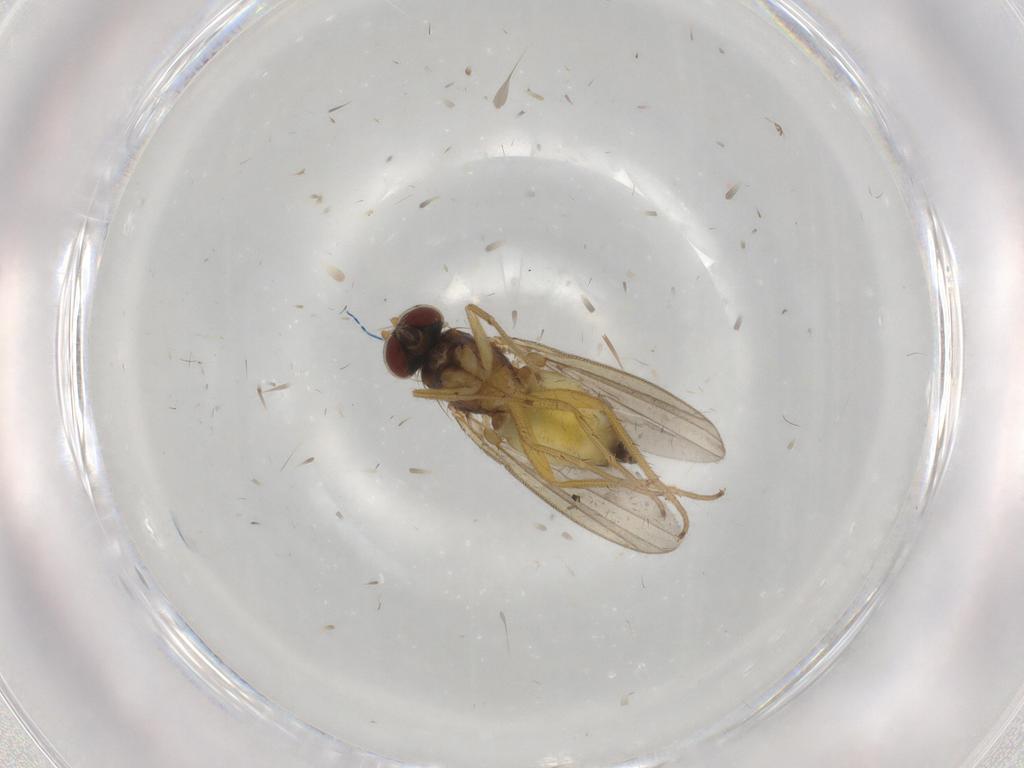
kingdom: Animalia
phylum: Arthropoda
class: Insecta
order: Diptera
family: Dolichopodidae
